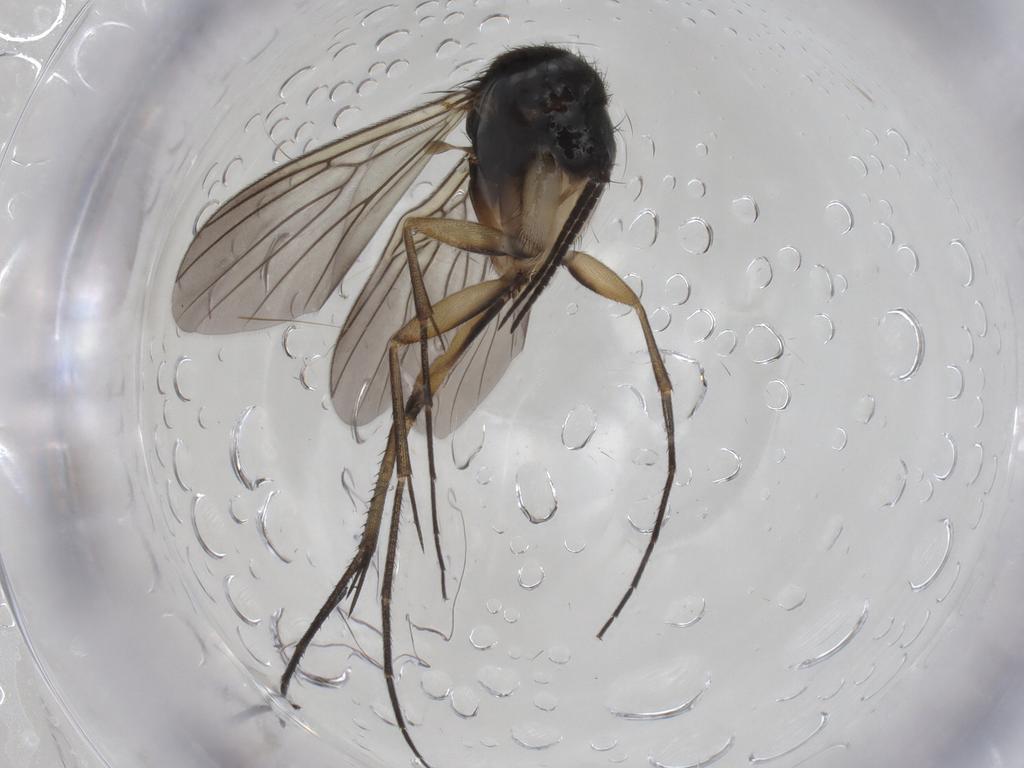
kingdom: Animalia
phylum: Arthropoda
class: Insecta
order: Diptera
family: Mycetophilidae
